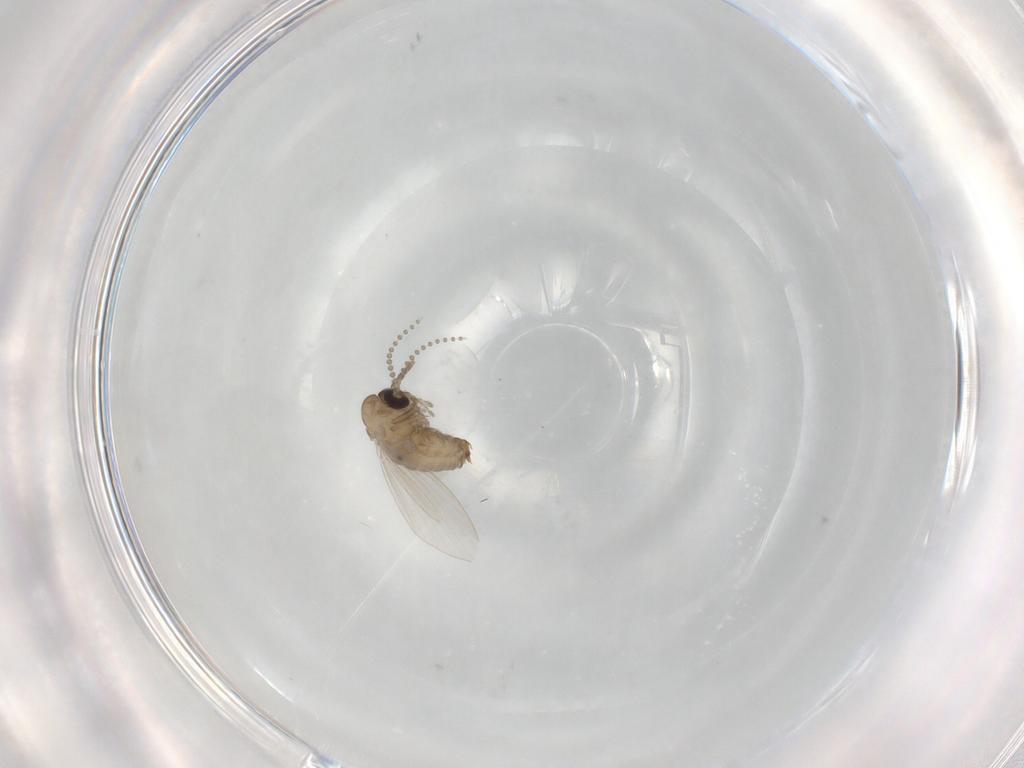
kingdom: Animalia
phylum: Arthropoda
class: Insecta
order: Diptera
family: Psychodidae
